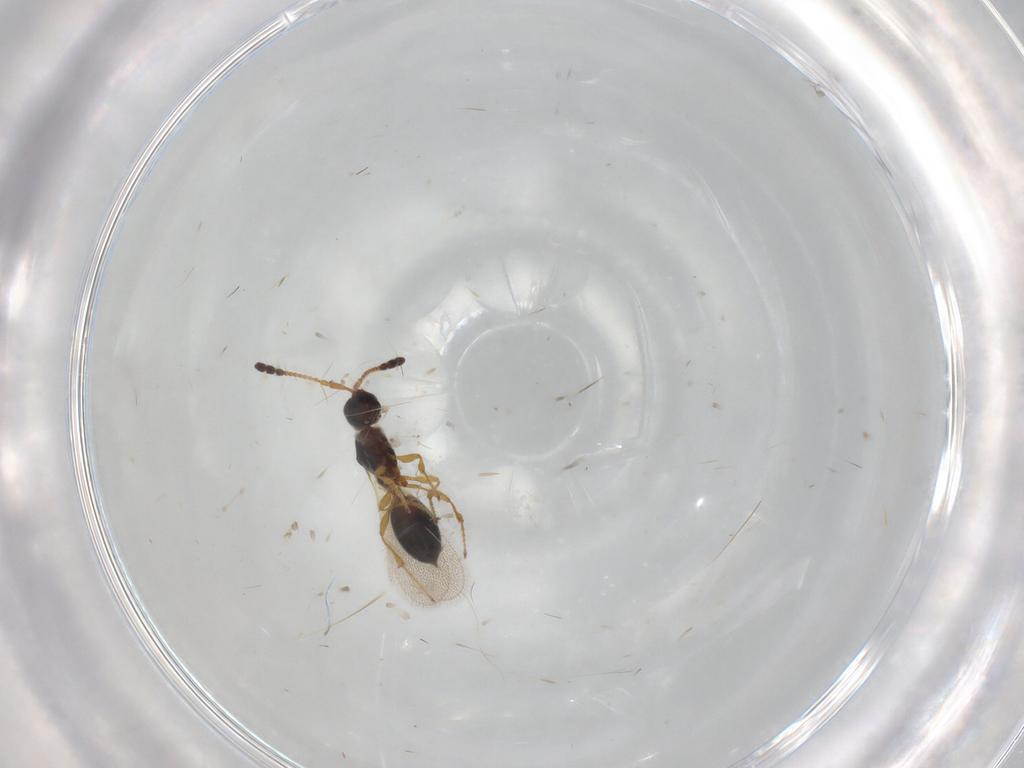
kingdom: Animalia
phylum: Arthropoda
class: Insecta
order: Hymenoptera
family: Diapriidae
